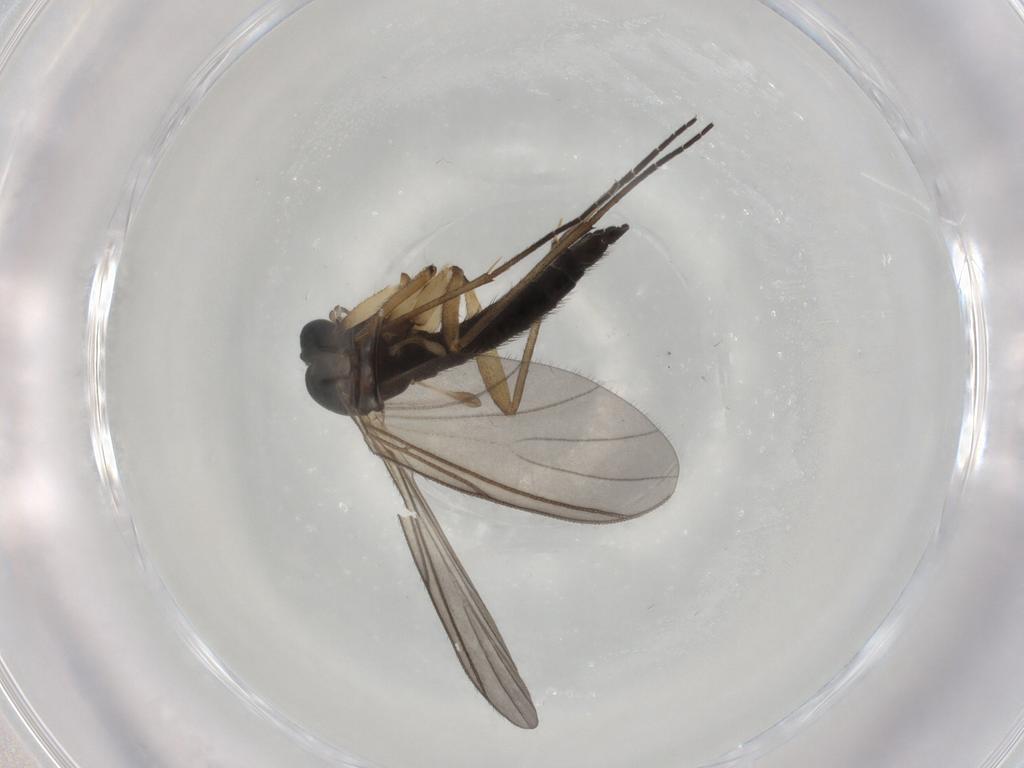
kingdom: Animalia
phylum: Arthropoda
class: Insecta
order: Diptera
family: Sciaridae
